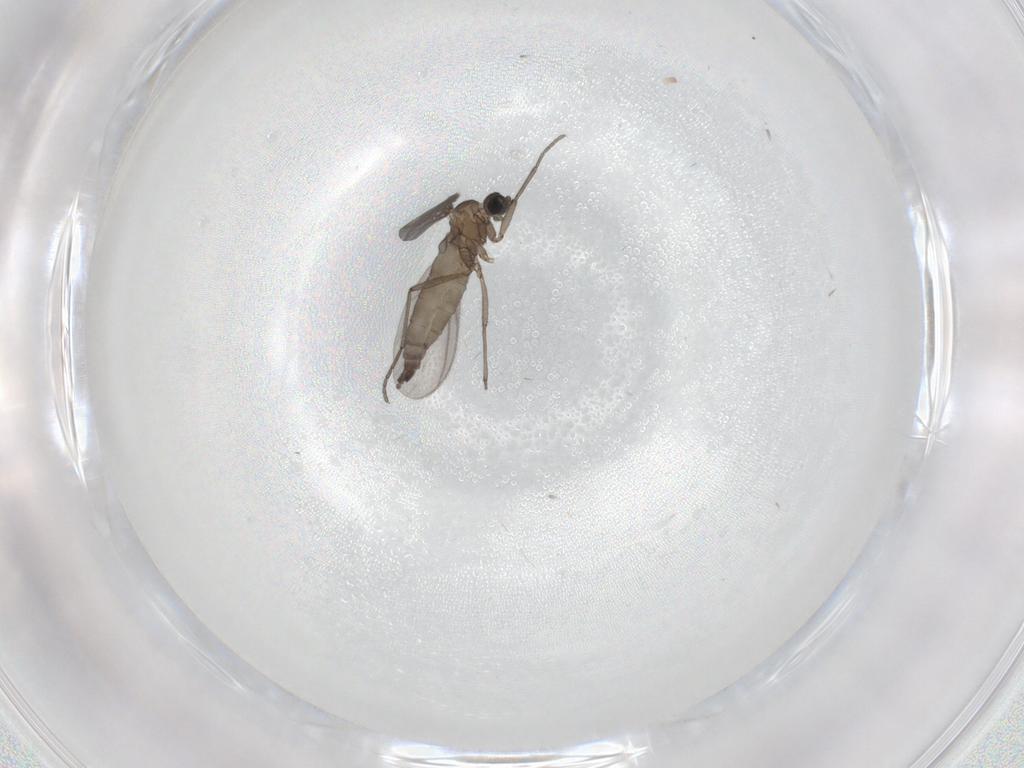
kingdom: Animalia
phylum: Arthropoda
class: Insecta
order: Diptera
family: Sciaridae
